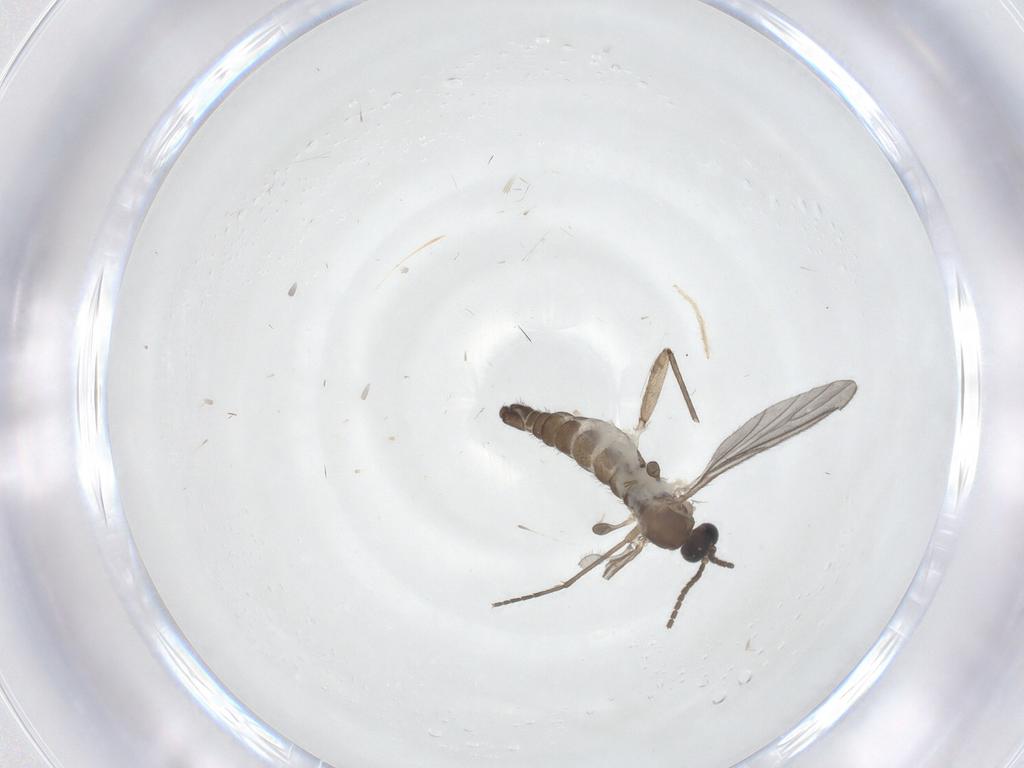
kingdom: Animalia
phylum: Arthropoda
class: Insecta
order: Diptera
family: Sciaridae
